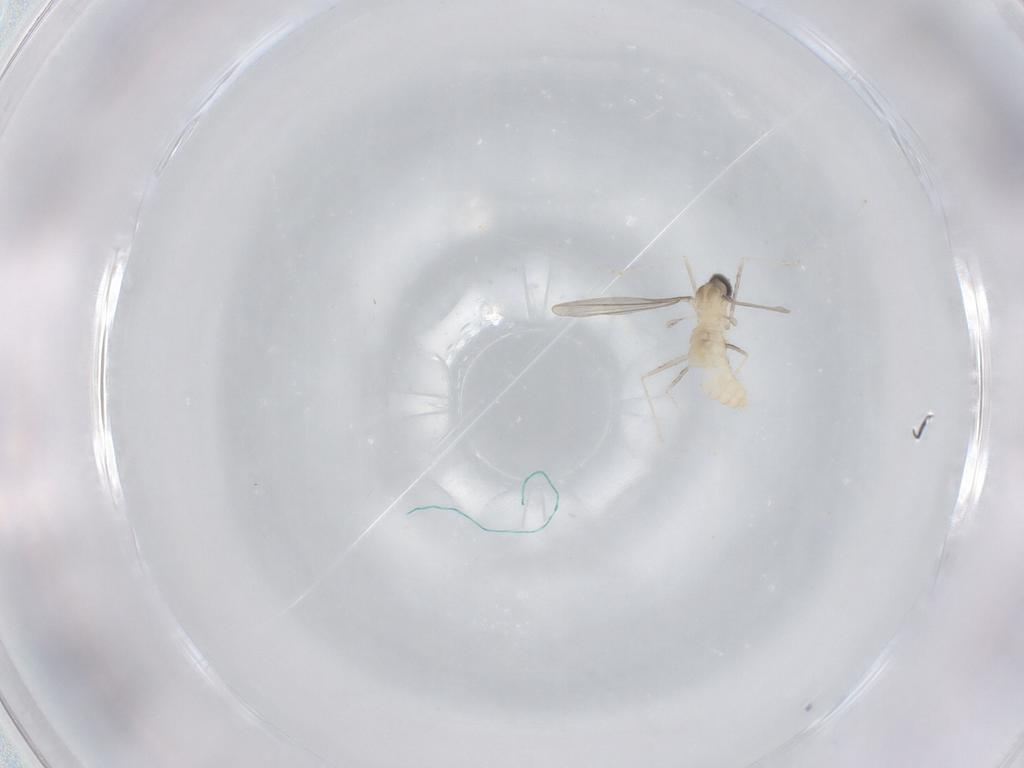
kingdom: Animalia
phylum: Arthropoda
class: Insecta
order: Diptera
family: Cecidomyiidae
